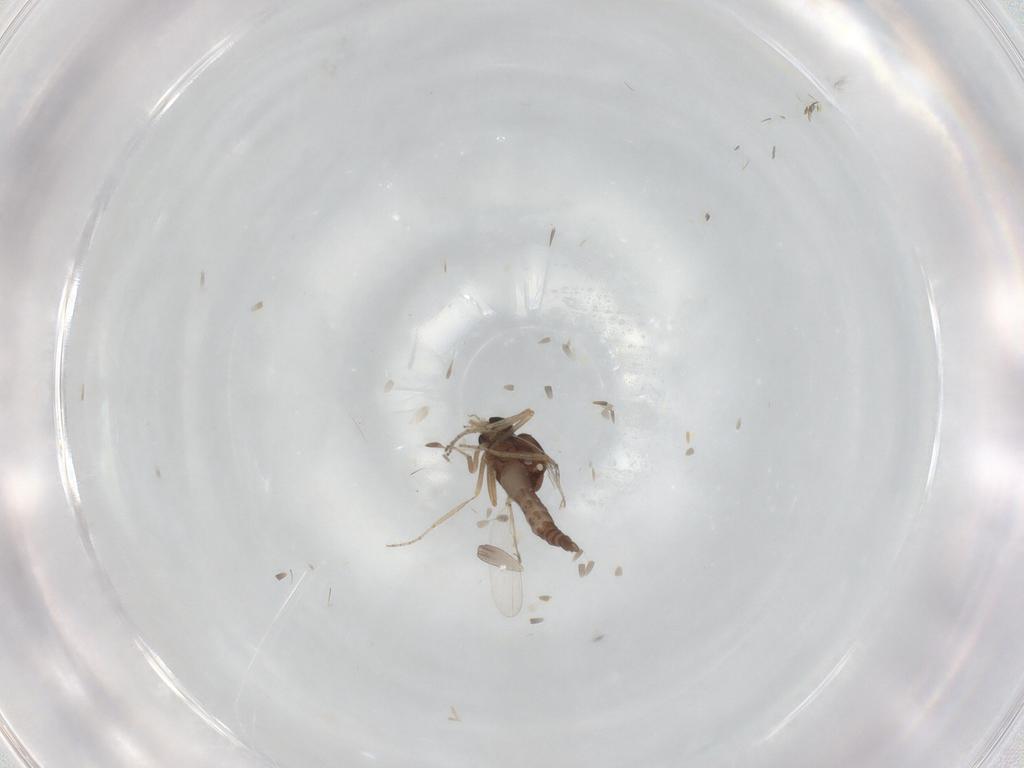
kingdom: Animalia
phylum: Arthropoda
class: Insecta
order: Diptera
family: Ceratopogonidae
